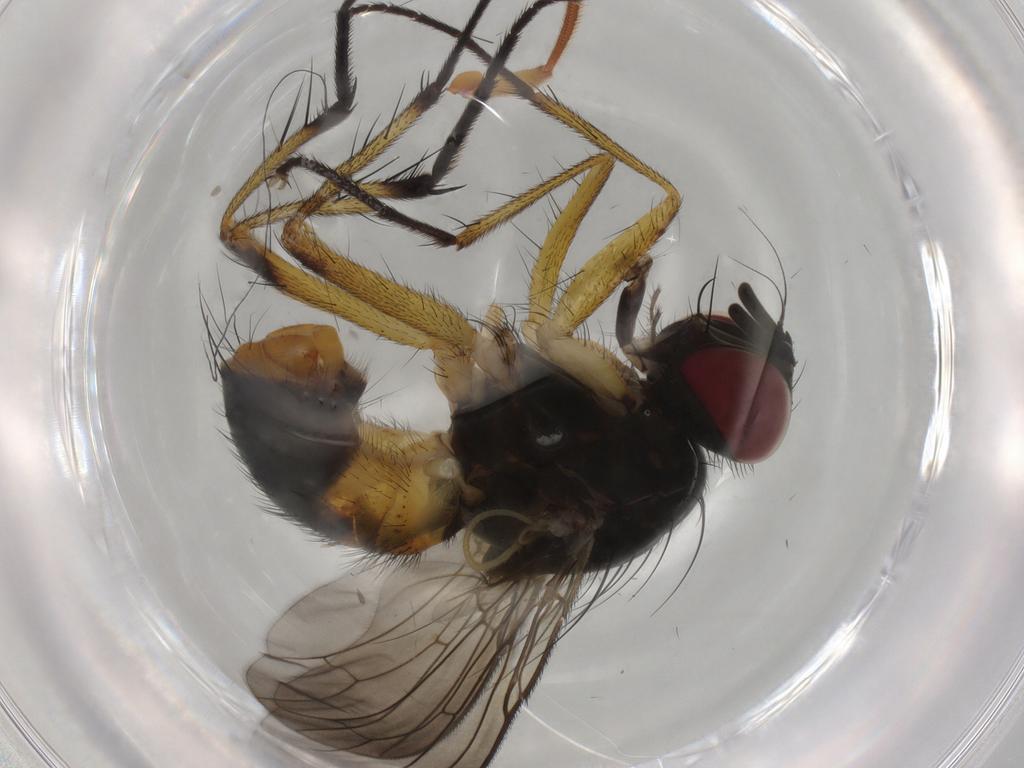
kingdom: Animalia
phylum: Arthropoda
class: Insecta
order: Diptera
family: Muscidae
